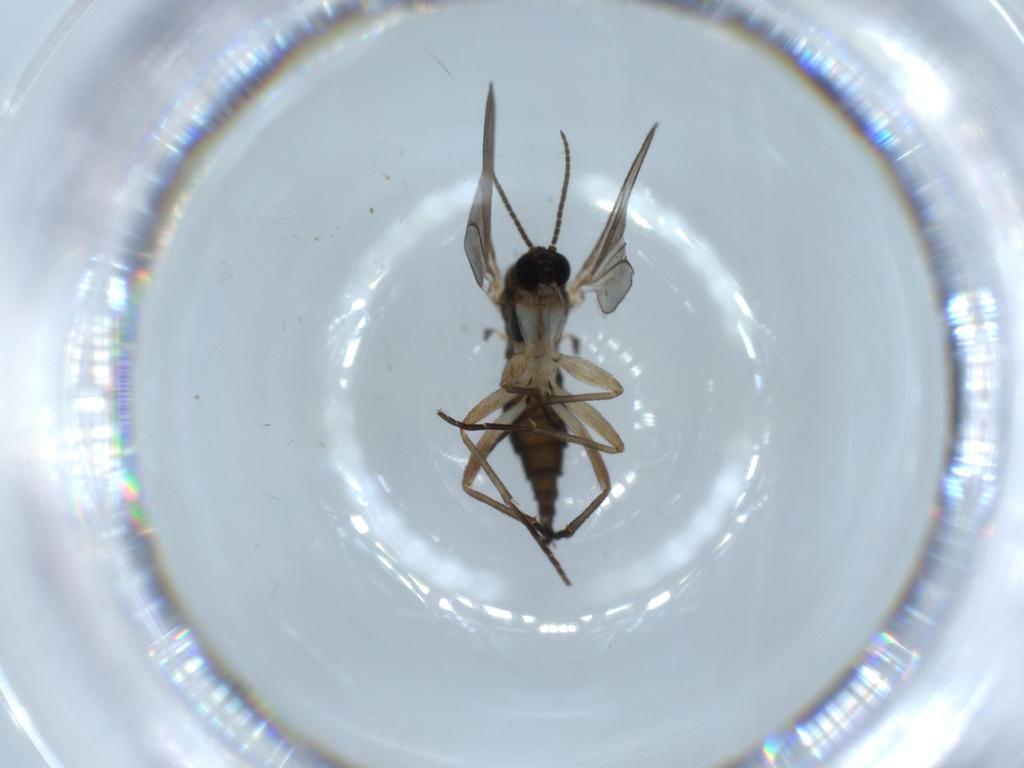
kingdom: Animalia
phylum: Arthropoda
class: Insecta
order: Diptera
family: Sciaridae
